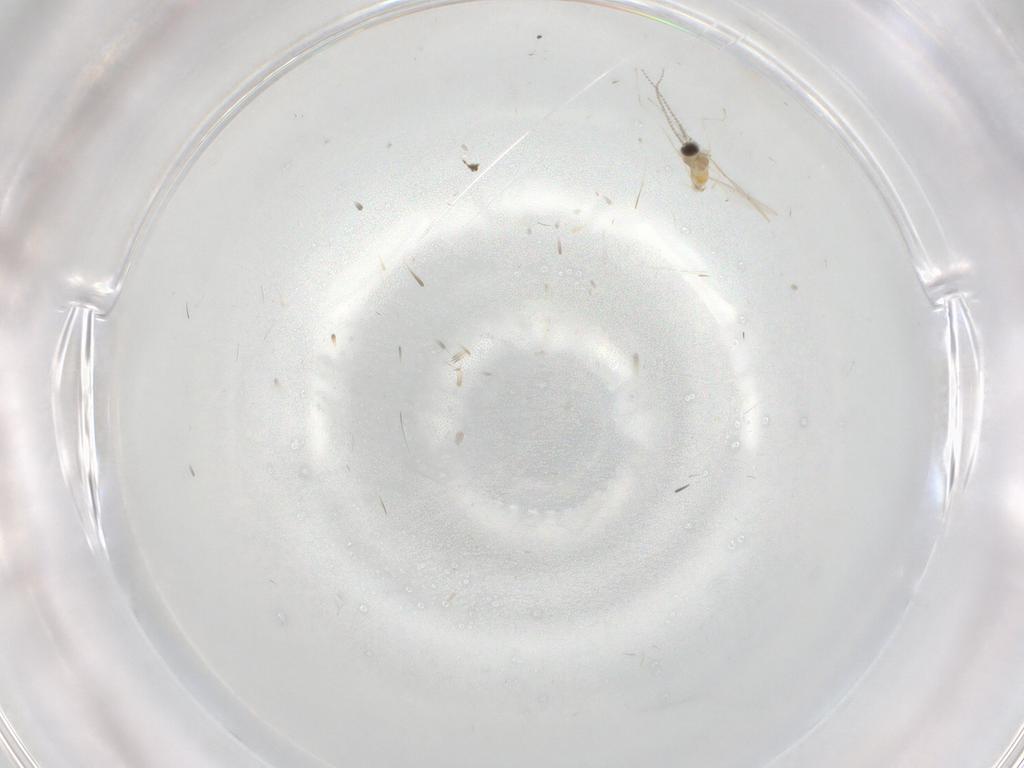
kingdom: Animalia
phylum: Arthropoda
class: Insecta
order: Diptera
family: Cecidomyiidae
